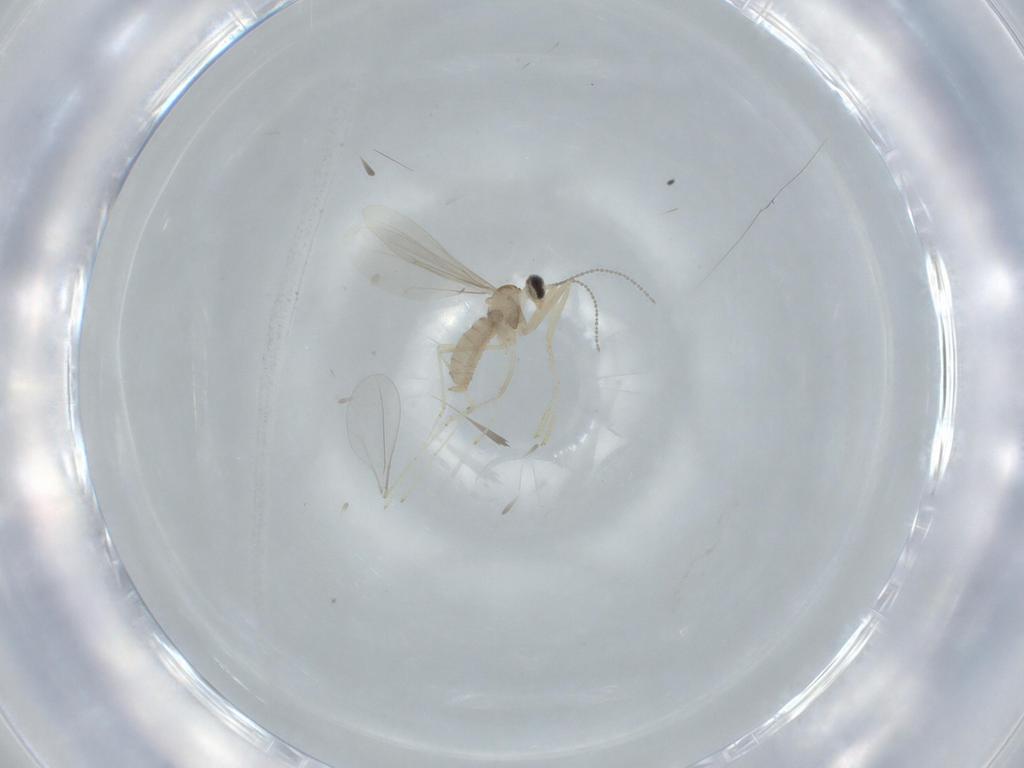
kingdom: Animalia
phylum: Arthropoda
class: Insecta
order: Diptera
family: Cecidomyiidae
